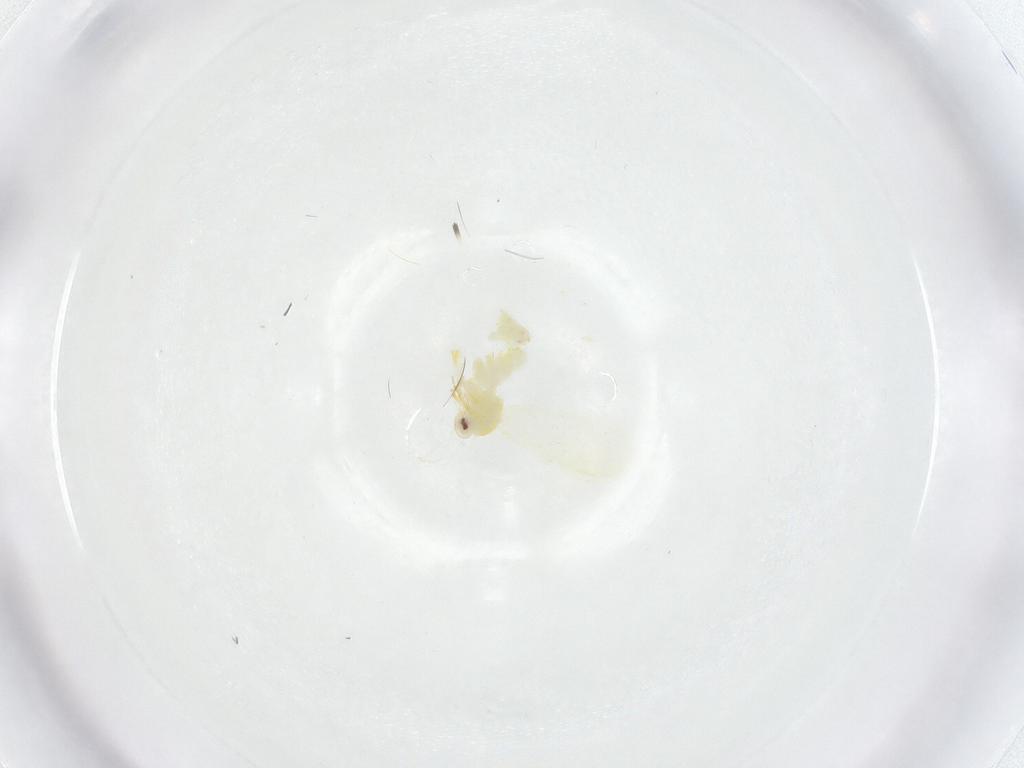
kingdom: Animalia
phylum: Arthropoda
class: Insecta
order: Hemiptera
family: Aleyrodidae
